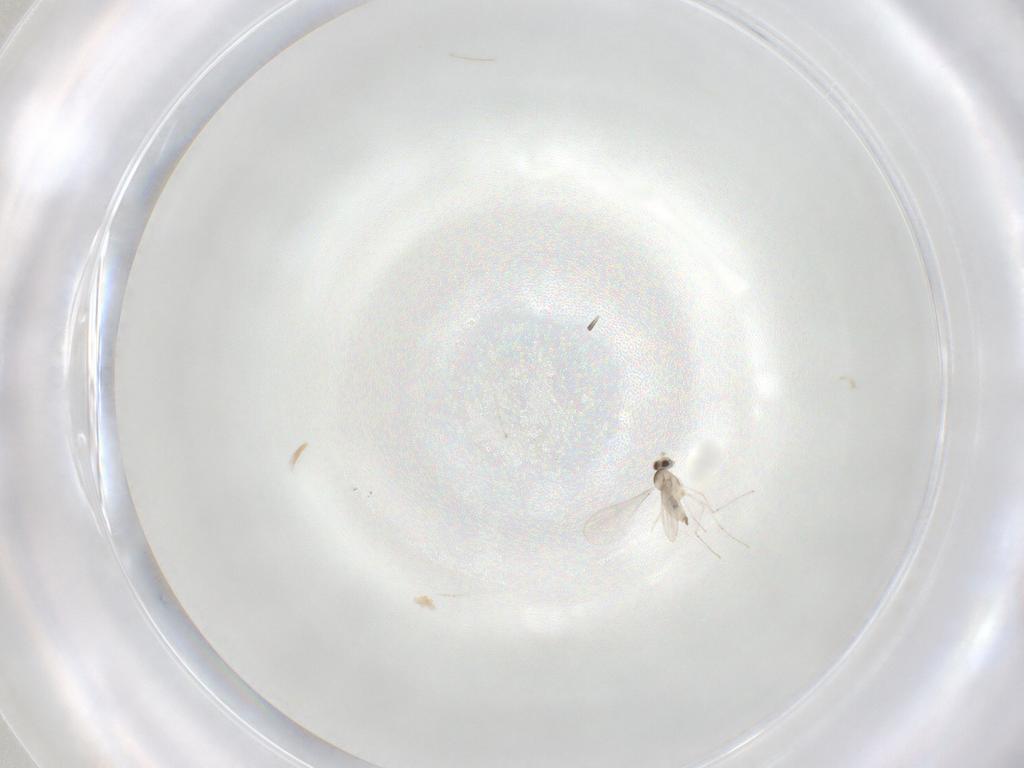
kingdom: Animalia
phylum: Arthropoda
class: Insecta
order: Diptera
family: Cecidomyiidae
